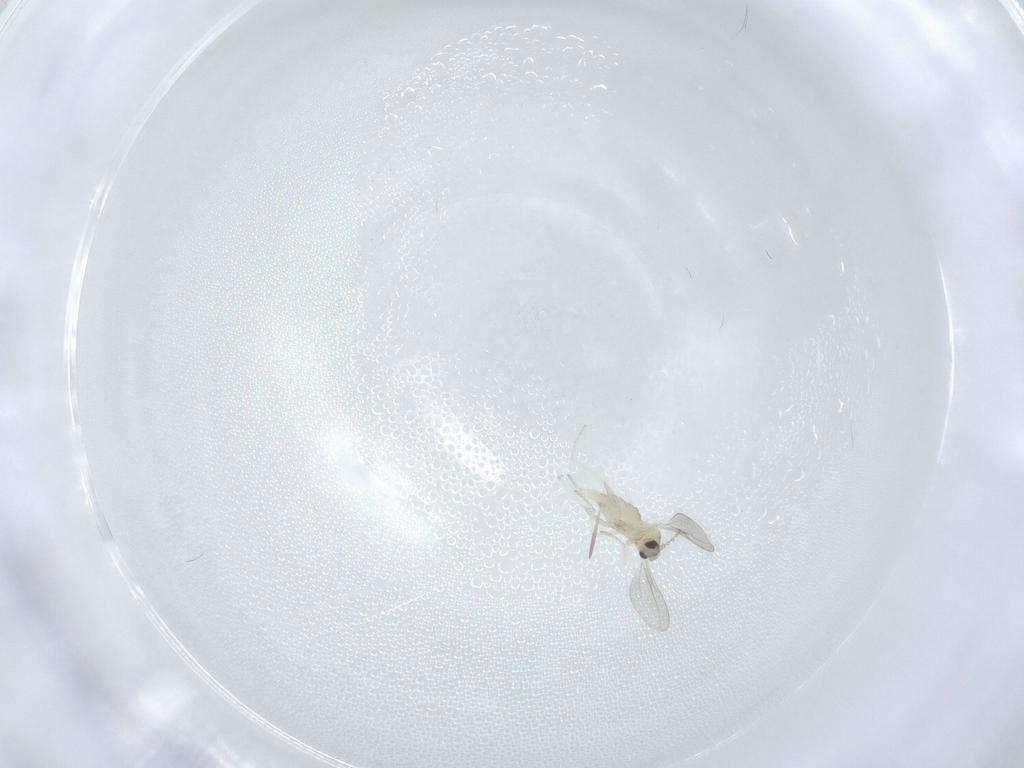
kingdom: Animalia
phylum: Arthropoda
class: Insecta
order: Diptera
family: Cecidomyiidae
